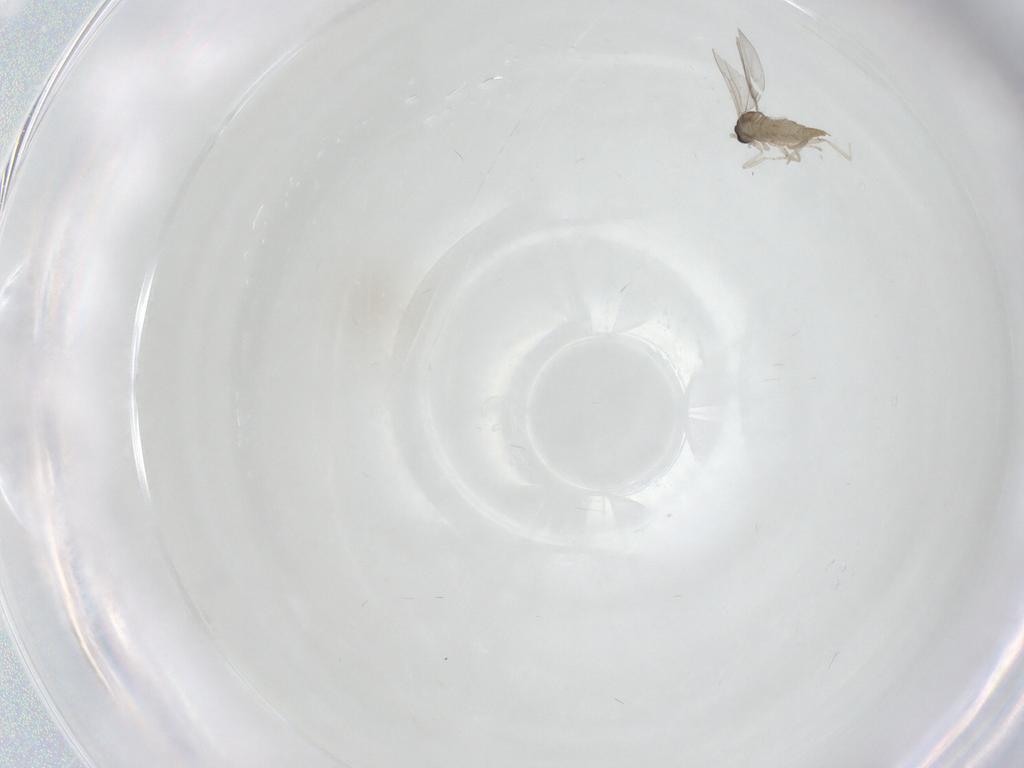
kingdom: Animalia
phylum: Arthropoda
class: Insecta
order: Diptera
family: Cecidomyiidae
